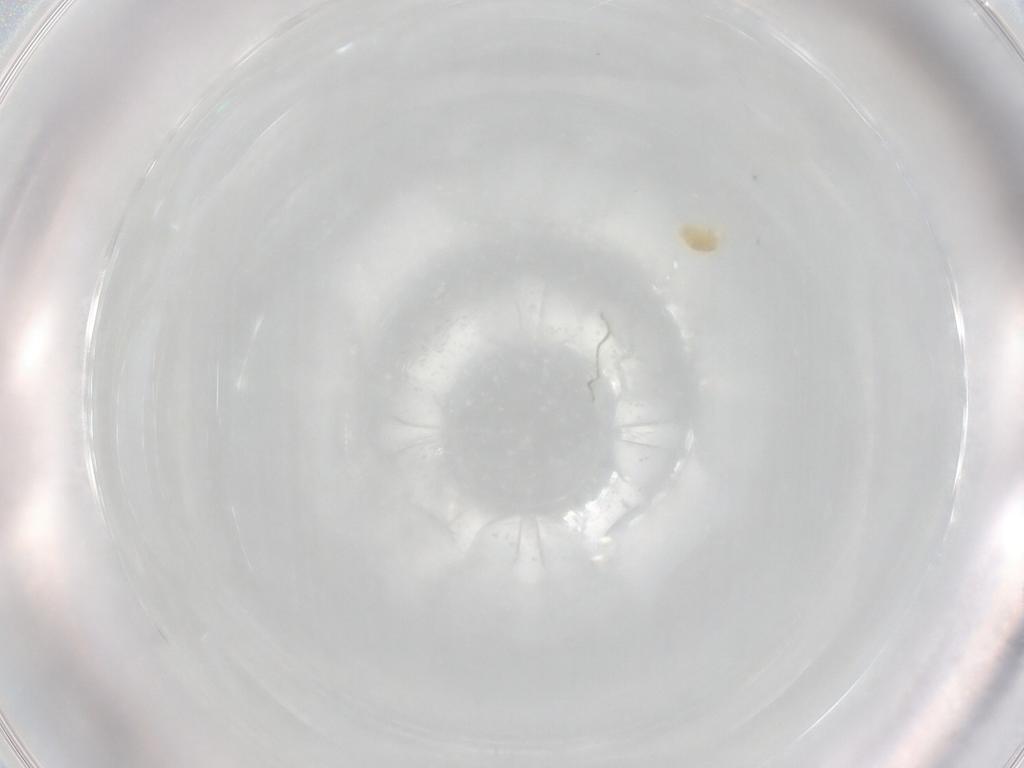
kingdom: Animalia
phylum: Arthropoda
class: Arachnida
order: Trombidiformes
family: Eupodidae
